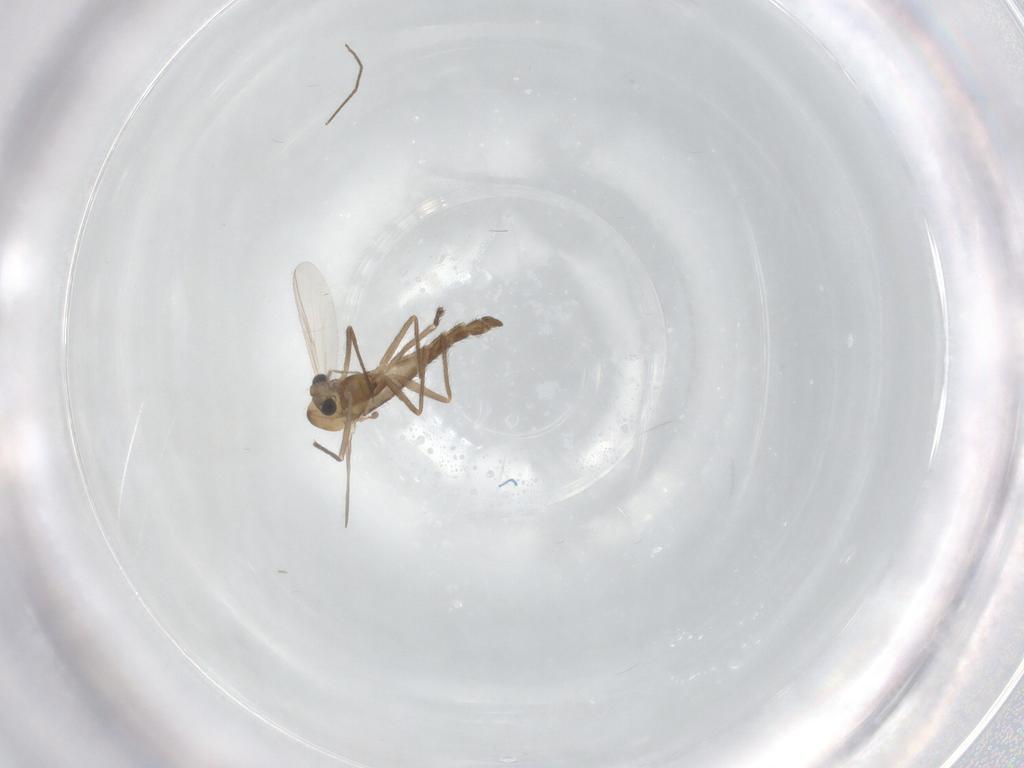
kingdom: Animalia
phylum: Arthropoda
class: Insecta
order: Diptera
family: Chironomidae
